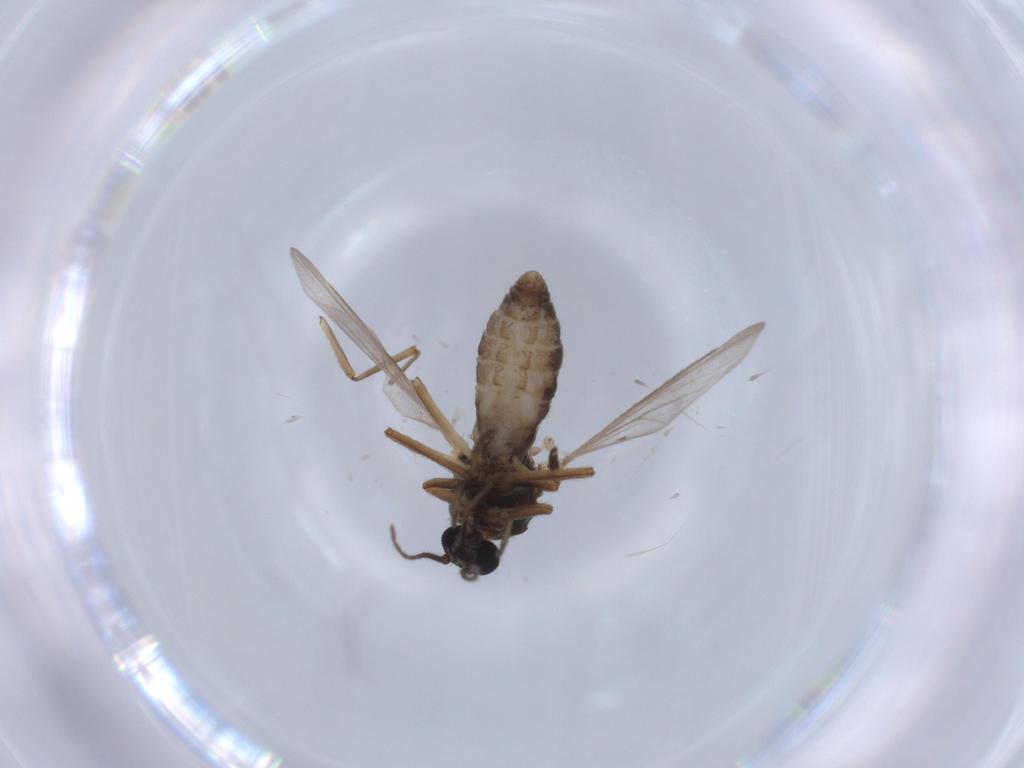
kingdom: Animalia
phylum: Arthropoda
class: Insecta
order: Diptera
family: Ceratopogonidae
